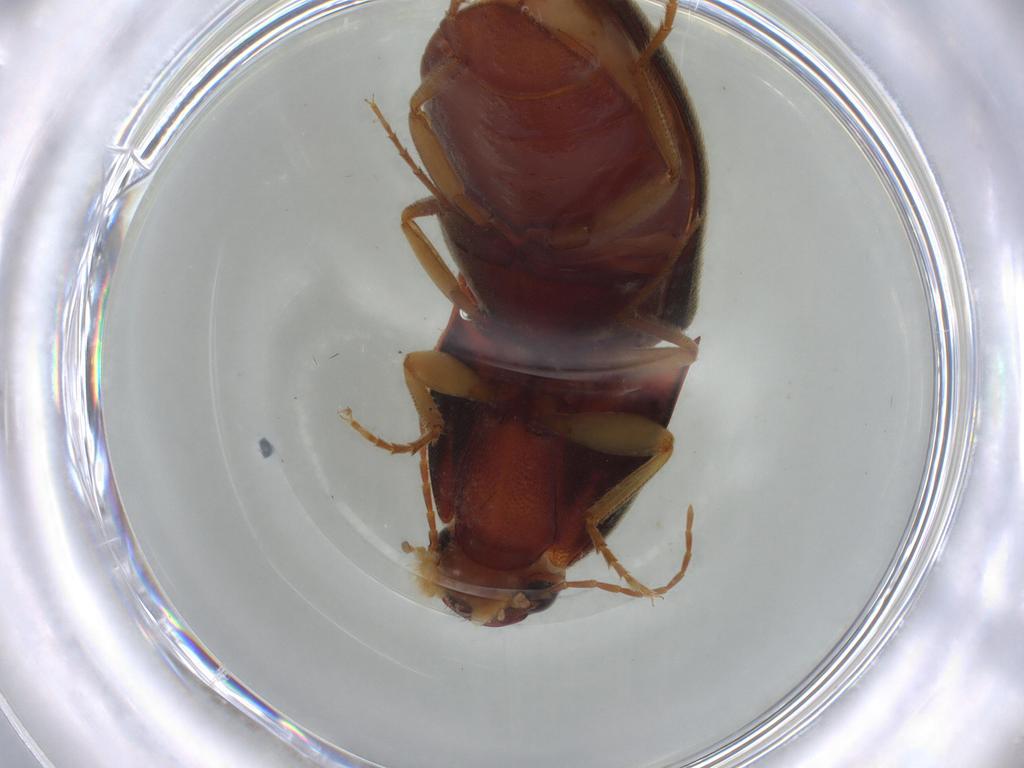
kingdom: Animalia
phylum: Arthropoda
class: Insecta
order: Coleoptera
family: Elateridae
